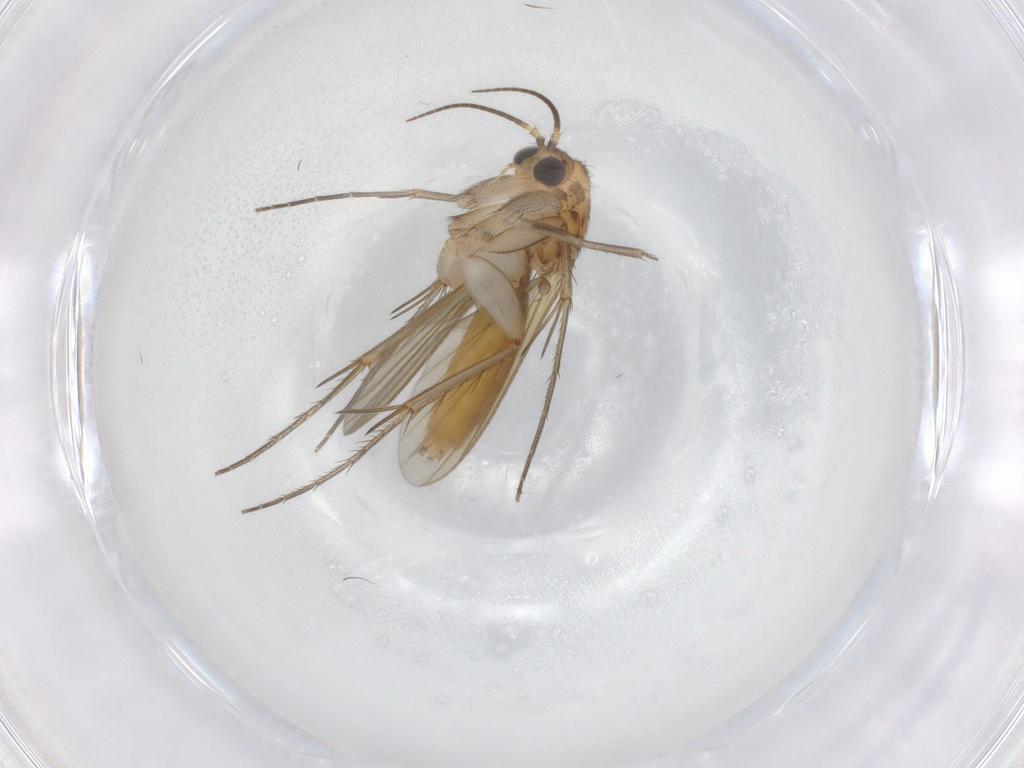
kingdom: Animalia
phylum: Arthropoda
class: Insecta
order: Diptera
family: Mycetophilidae
